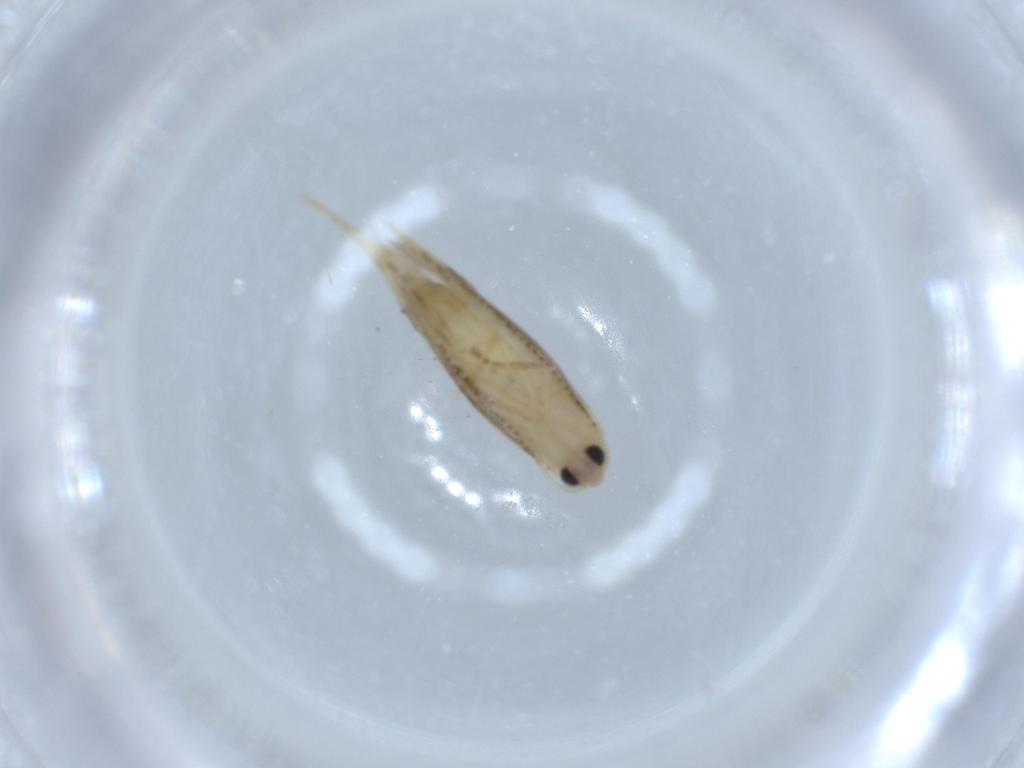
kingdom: Animalia
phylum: Arthropoda
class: Insecta
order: Lepidoptera
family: Bucculatricidae
